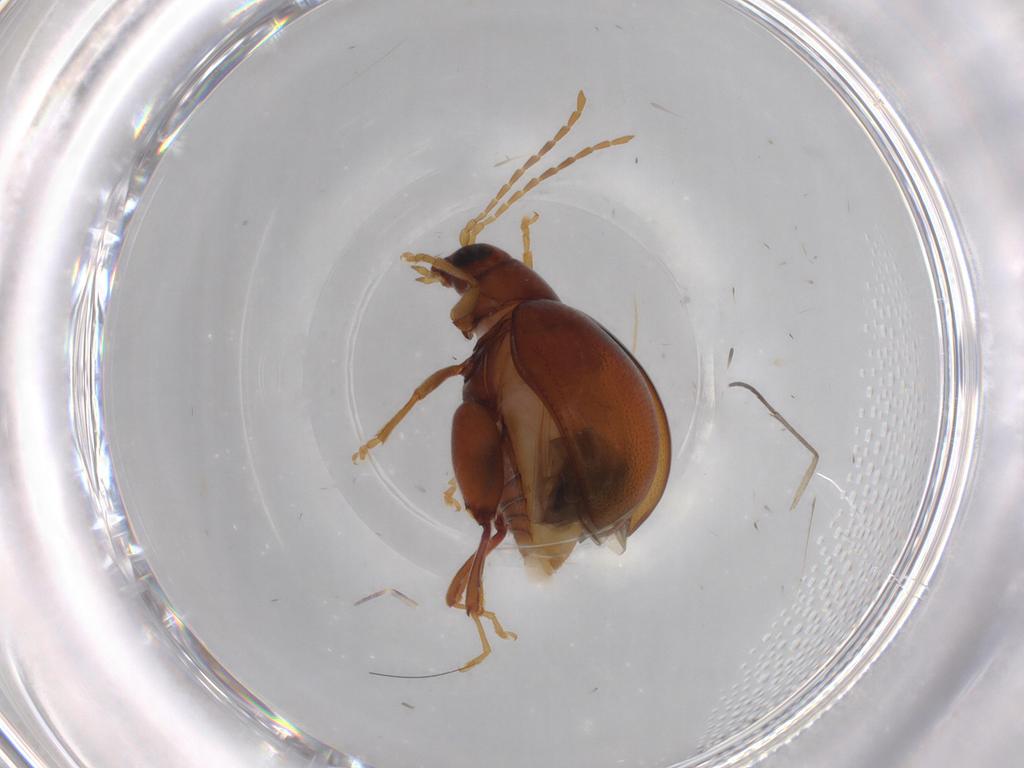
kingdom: Animalia
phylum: Arthropoda
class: Insecta
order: Coleoptera
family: Chrysomelidae
